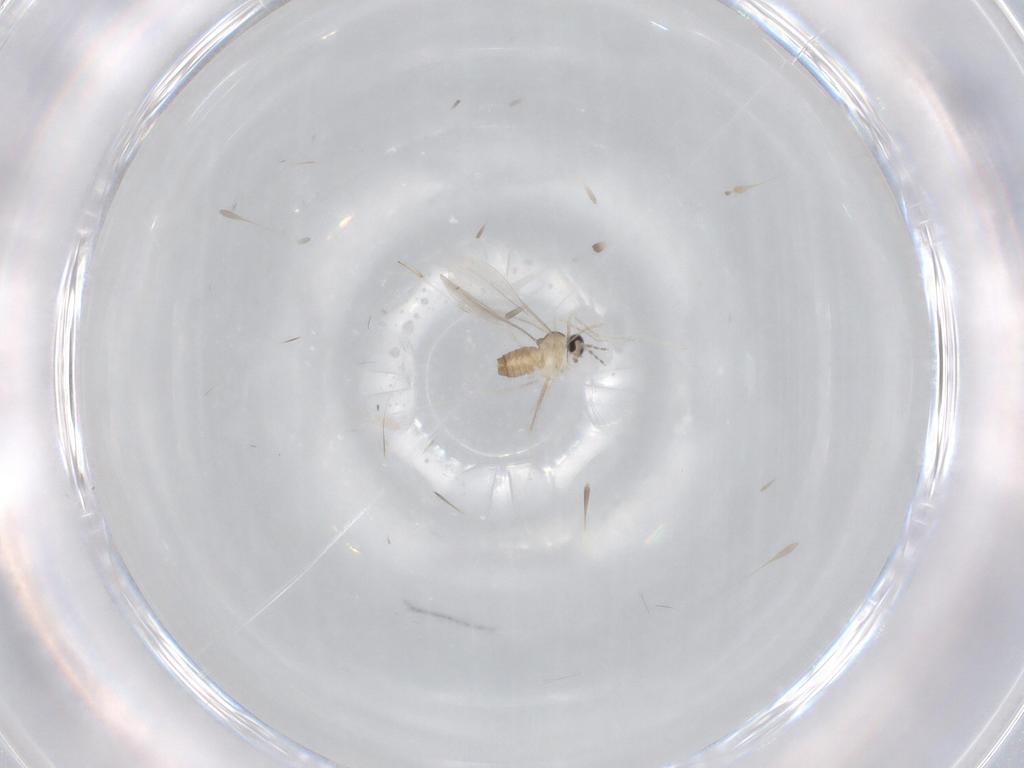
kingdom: Animalia
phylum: Arthropoda
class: Insecta
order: Diptera
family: Cecidomyiidae
